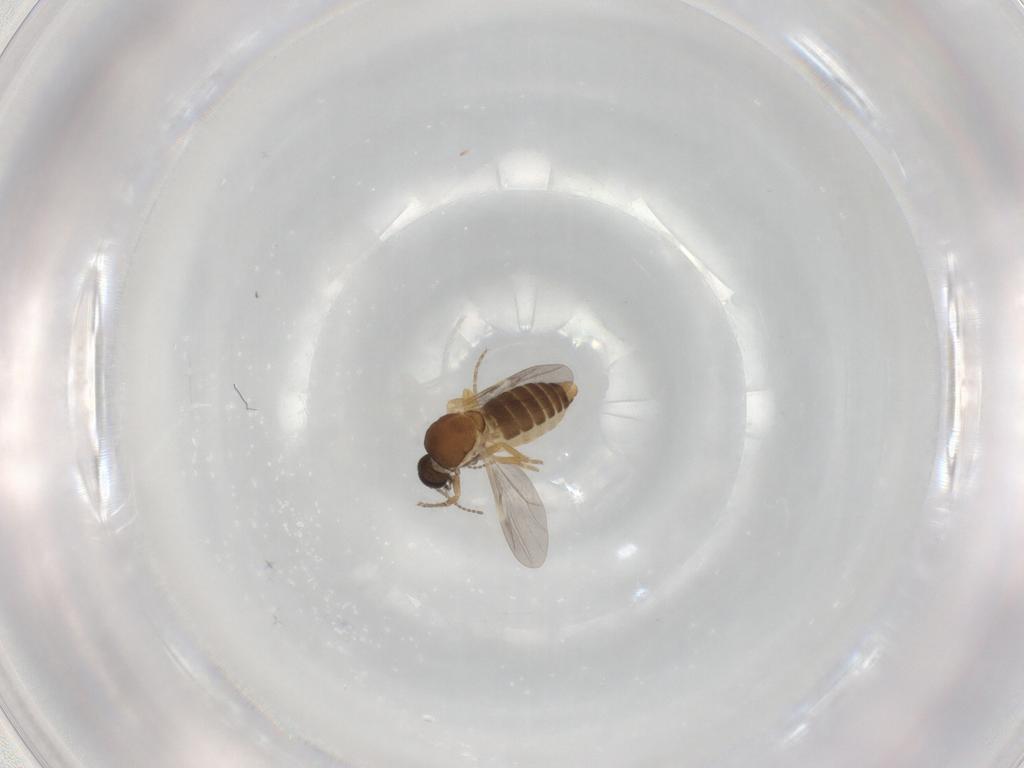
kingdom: Animalia
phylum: Arthropoda
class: Insecta
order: Diptera
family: Ceratopogonidae
